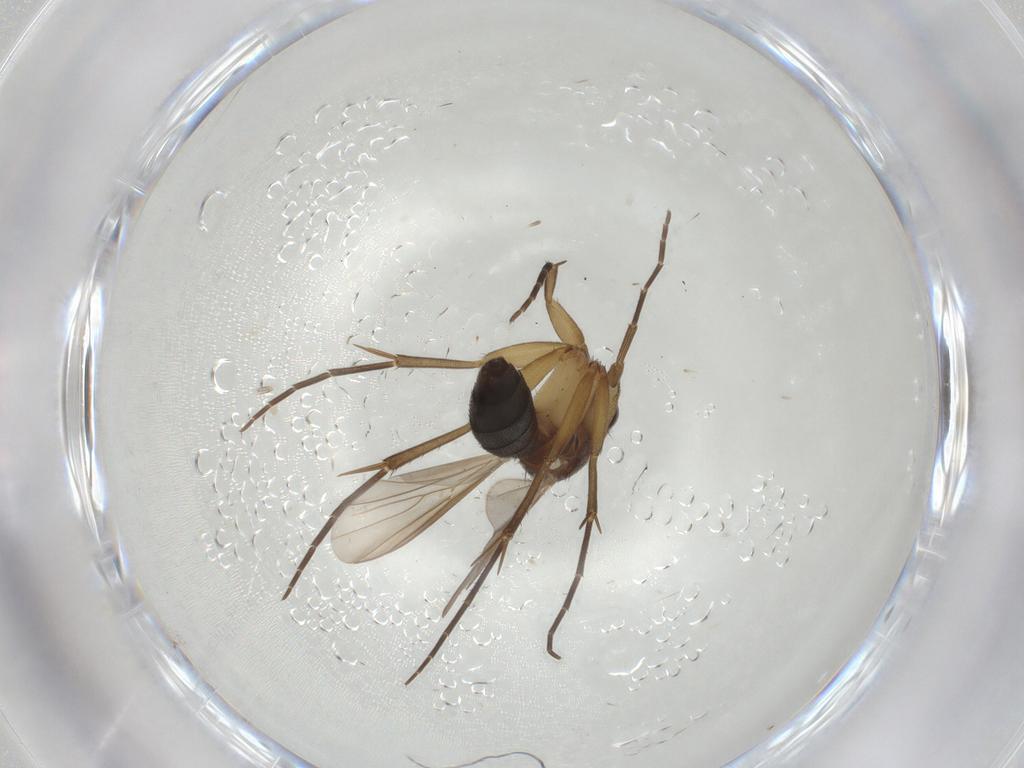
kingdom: Animalia
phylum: Arthropoda
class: Insecta
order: Diptera
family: Mycetophilidae
